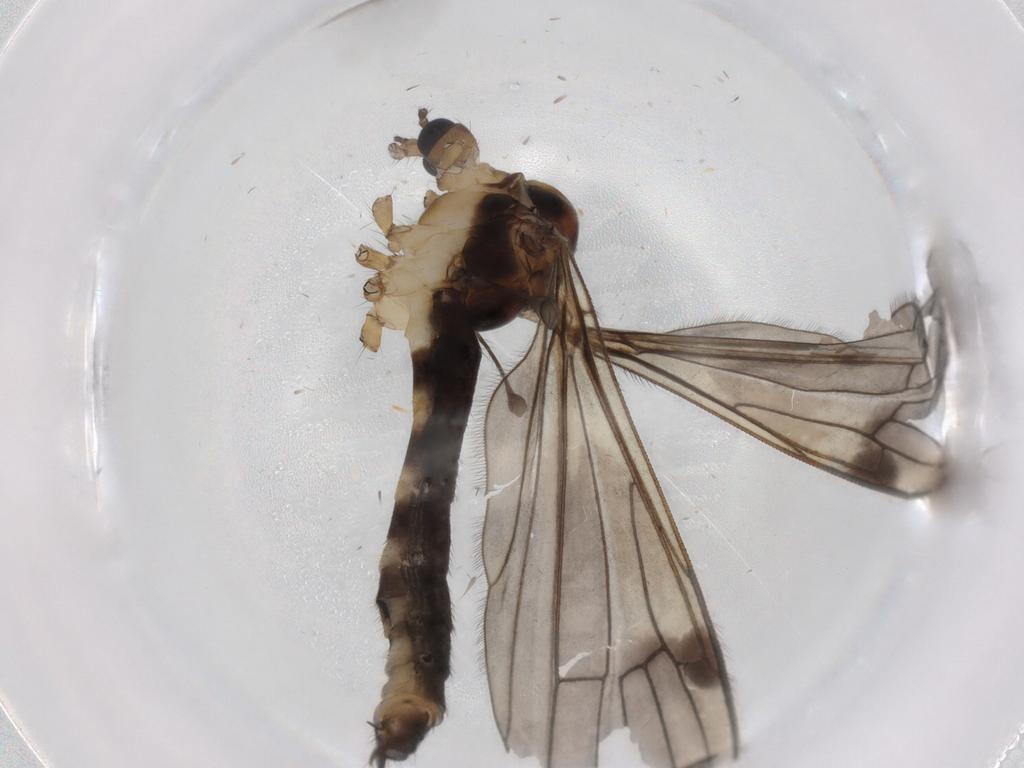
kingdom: Animalia
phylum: Arthropoda
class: Insecta
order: Diptera
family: Limoniidae
